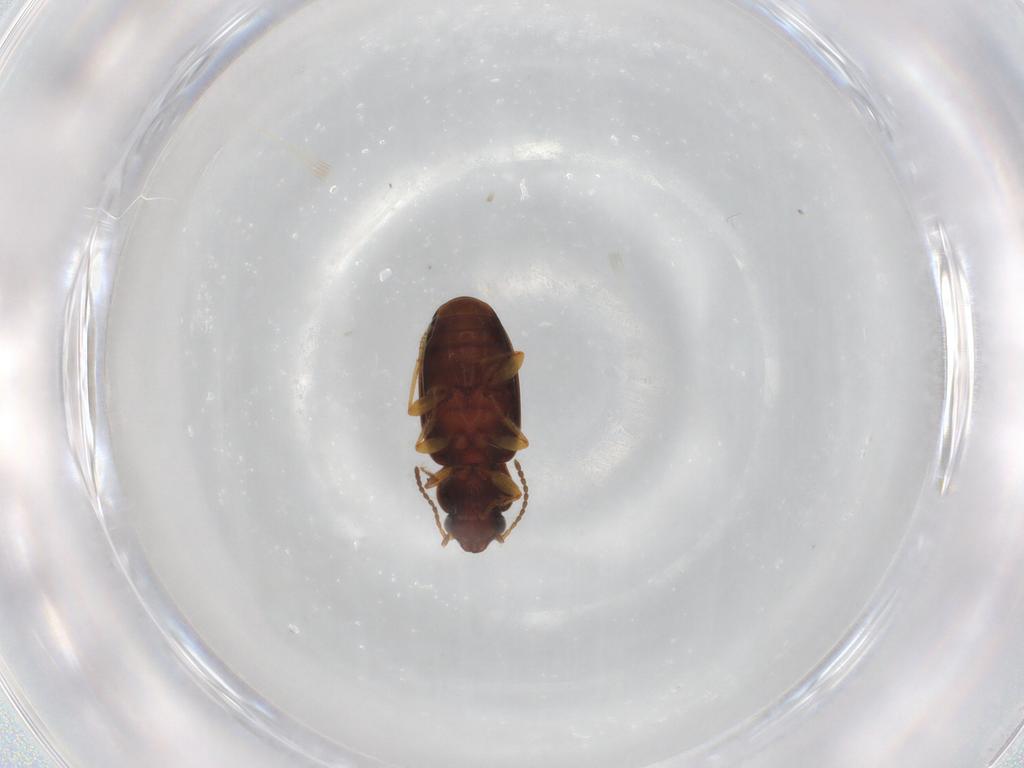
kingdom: Animalia
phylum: Arthropoda
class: Insecta
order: Coleoptera
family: Carabidae
